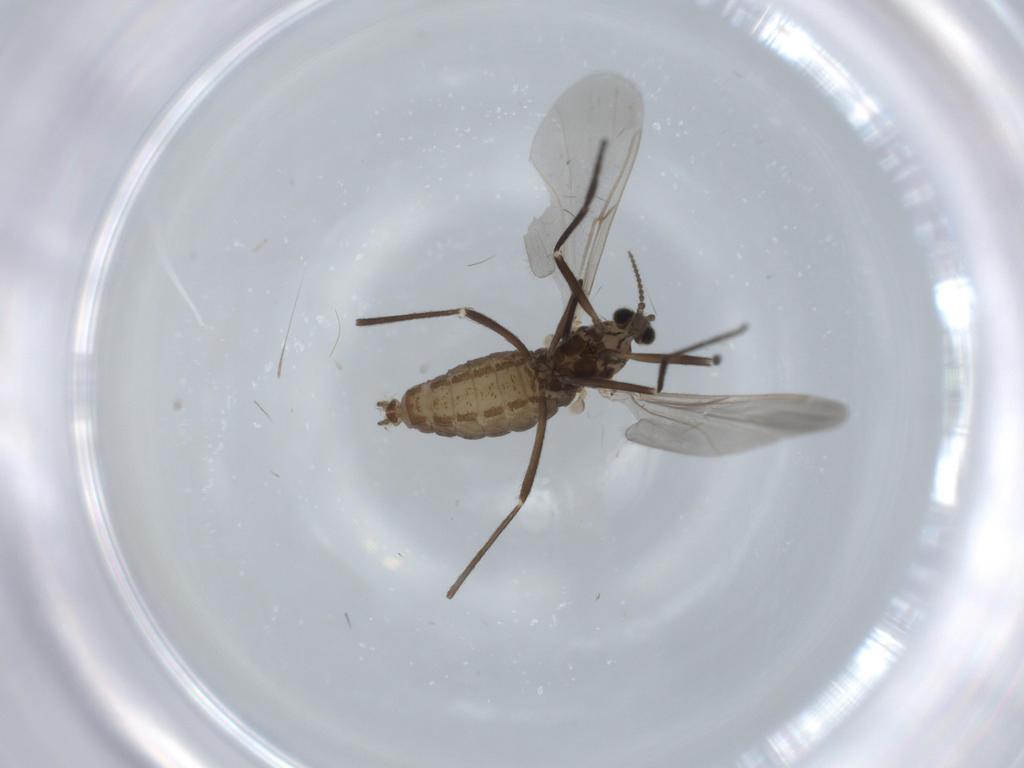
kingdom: Animalia
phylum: Arthropoda
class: Insecta
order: Diptera
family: Cecidomyiidae
